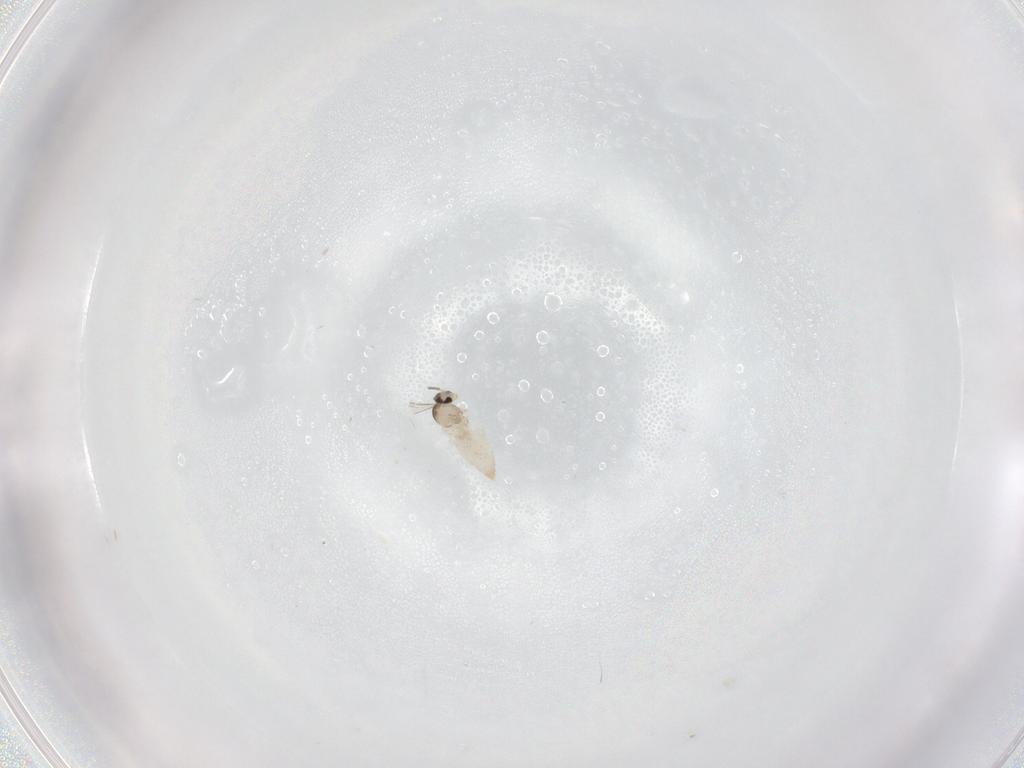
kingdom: Animalia
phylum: Arthropoda
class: Insecta
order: Diptera
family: Cecidomyiidae
